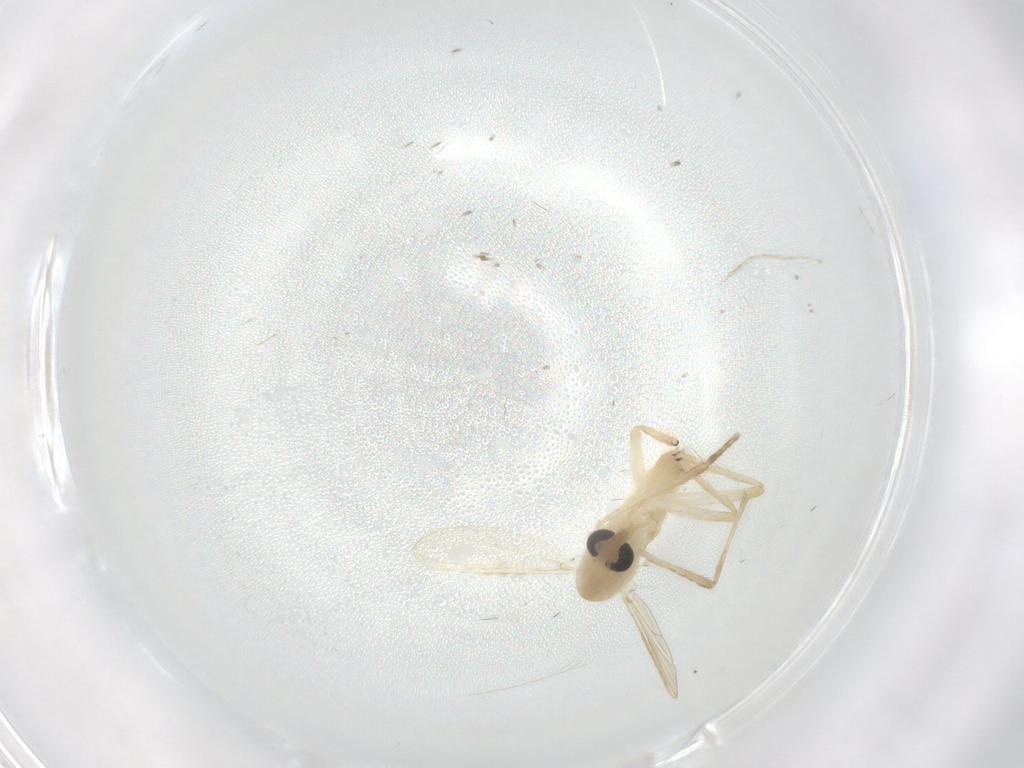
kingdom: Animalia
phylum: Arthropoda
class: Insecta
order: Diptera
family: Chironomidae
